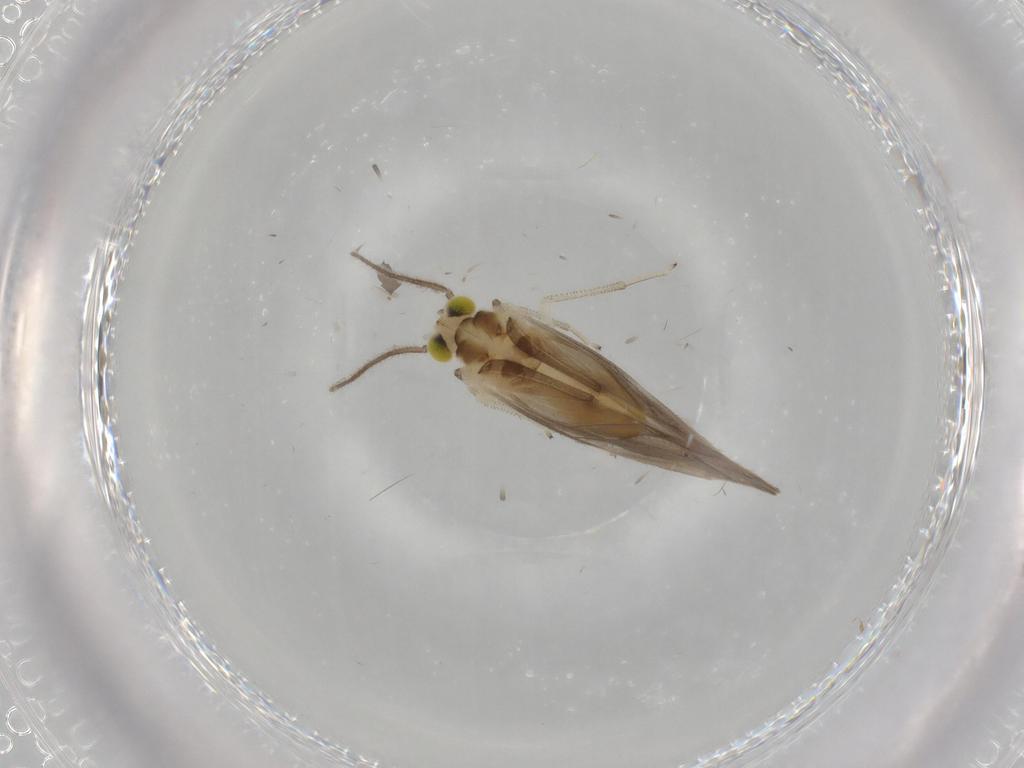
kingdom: Animalia
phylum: Arthropoda
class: Insecta
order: Psocodea
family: Caeciliusidae
